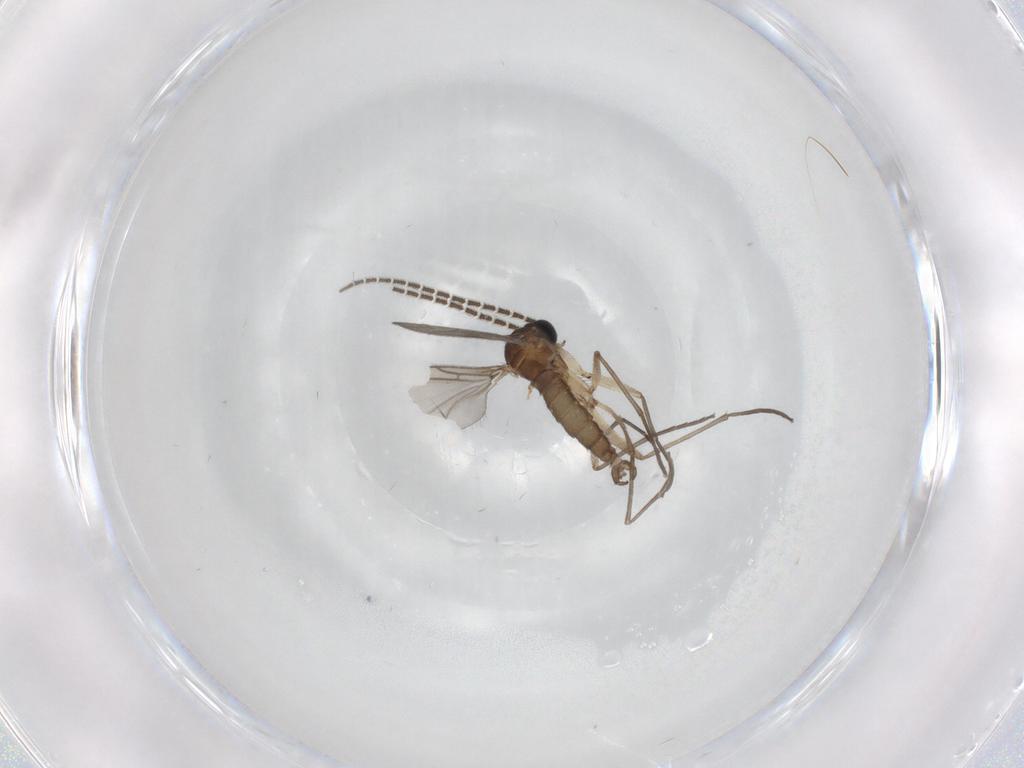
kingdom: Animalia
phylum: Arthropoda
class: Insecta
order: Diptera
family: Sciaridae
